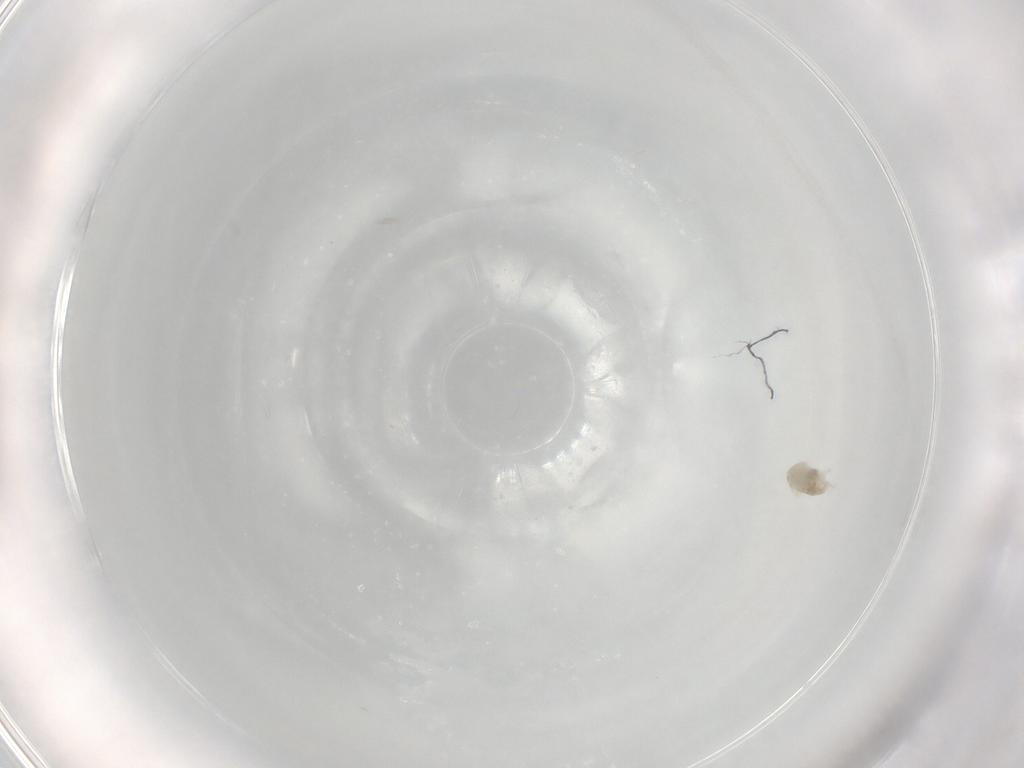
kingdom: Animalia
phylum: Arthropoda
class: Arachnida
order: Trombidiformes
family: Eupodidae
